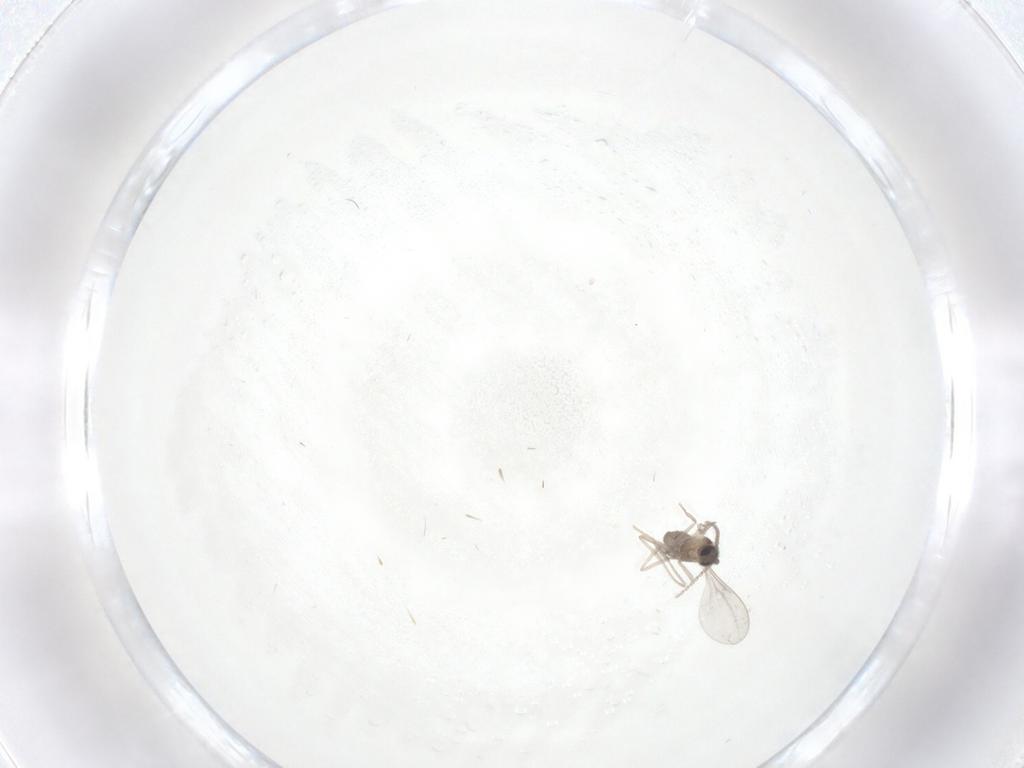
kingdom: Animalia
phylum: Arthropoda
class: Insecta
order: Diptera
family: Cecidomyiidae
